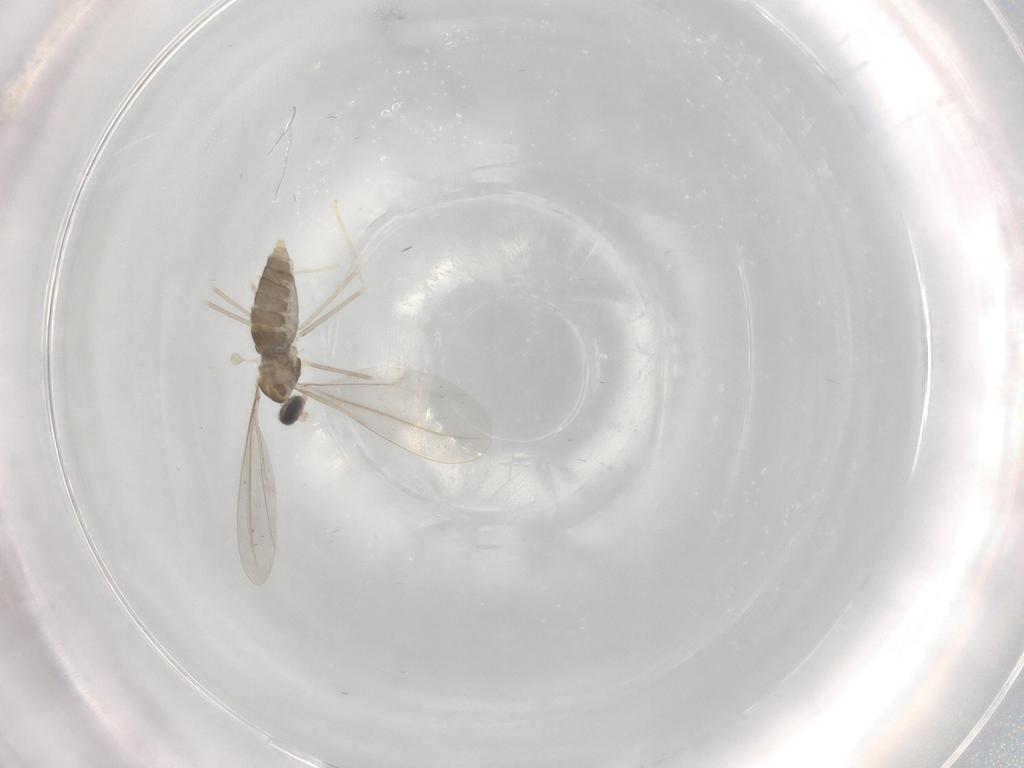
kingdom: Animalia
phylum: Arthropoda
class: Insecta
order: Diptera
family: Cecidomyiidae
